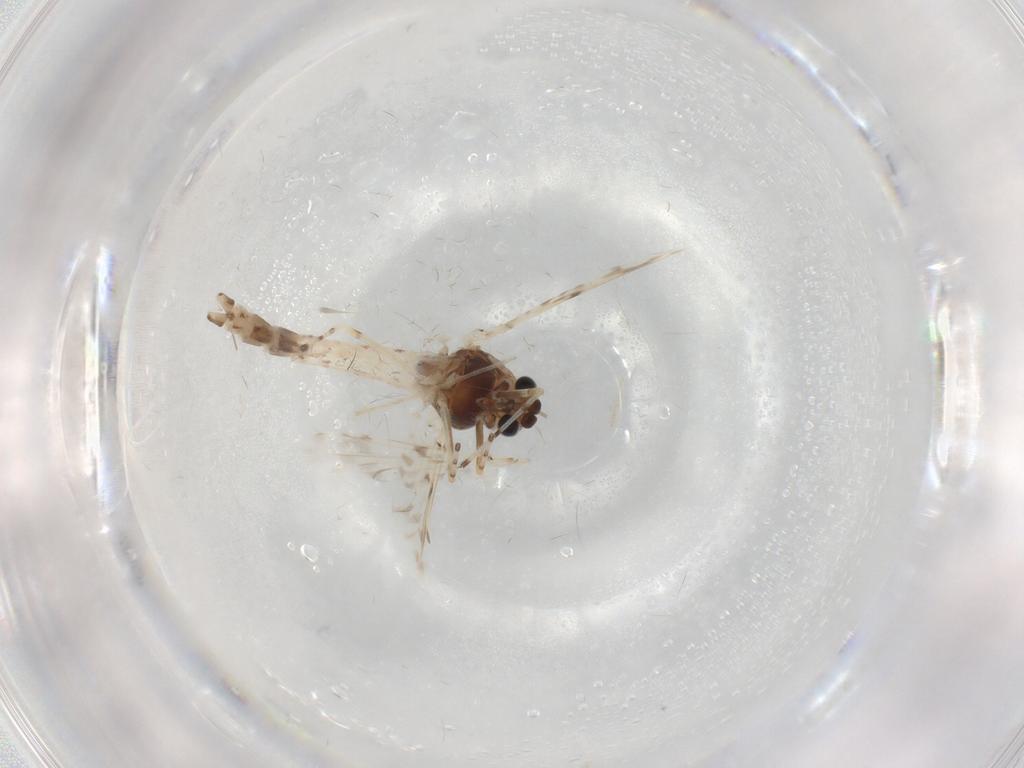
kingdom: Animalia
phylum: Arthropoda
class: Insecta
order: Diptera
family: Chironomidae
